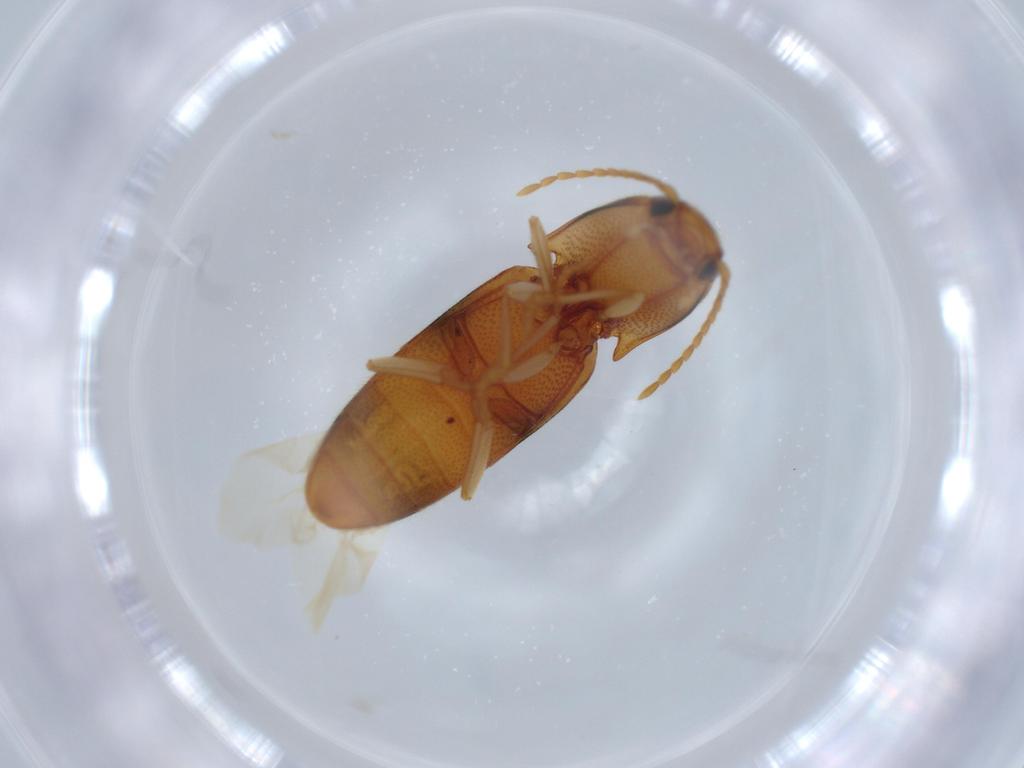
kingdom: Animalia
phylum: Arthropoda
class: Insecta
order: Coleoptera
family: Elateridae
